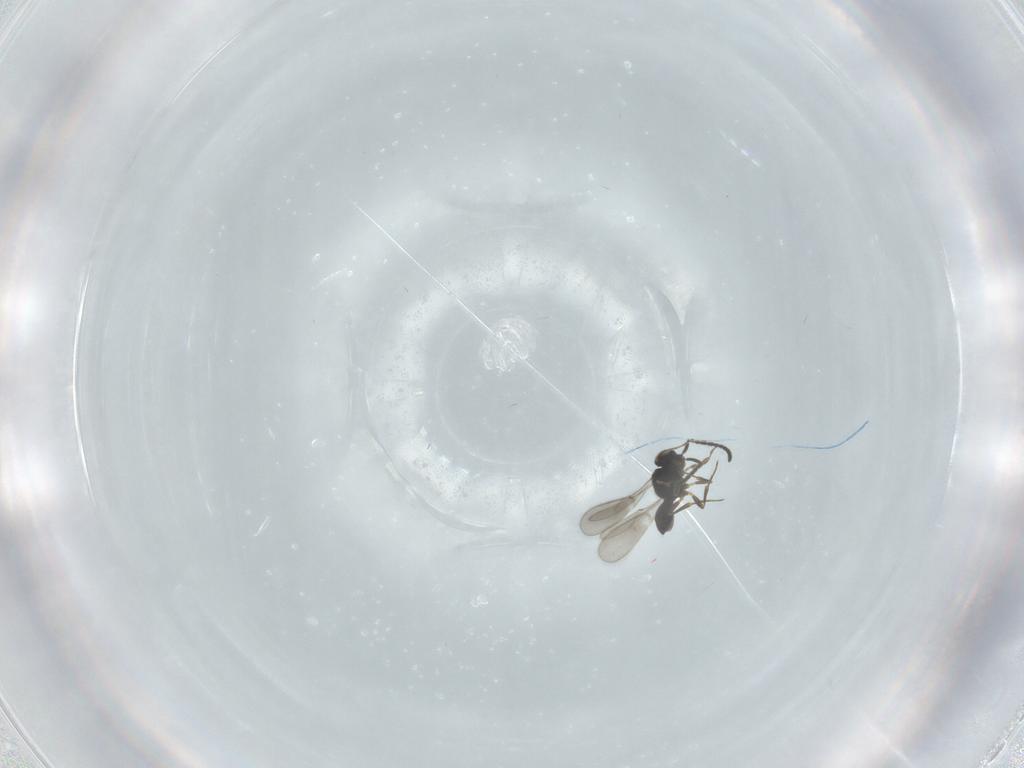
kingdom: Animalia
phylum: Arthropoda
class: Insecta
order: Hymenoptera
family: Scelionidae
